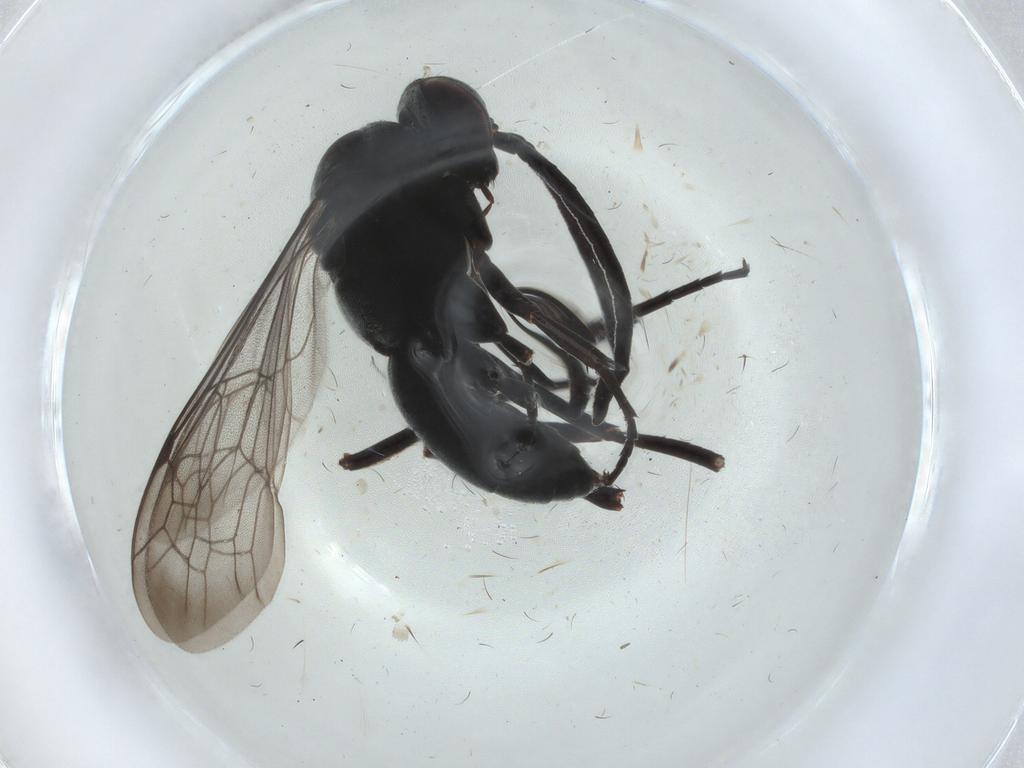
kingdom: Animalia
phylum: Arthropoda
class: Insecta
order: Hymenoptera
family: Pompilidae
